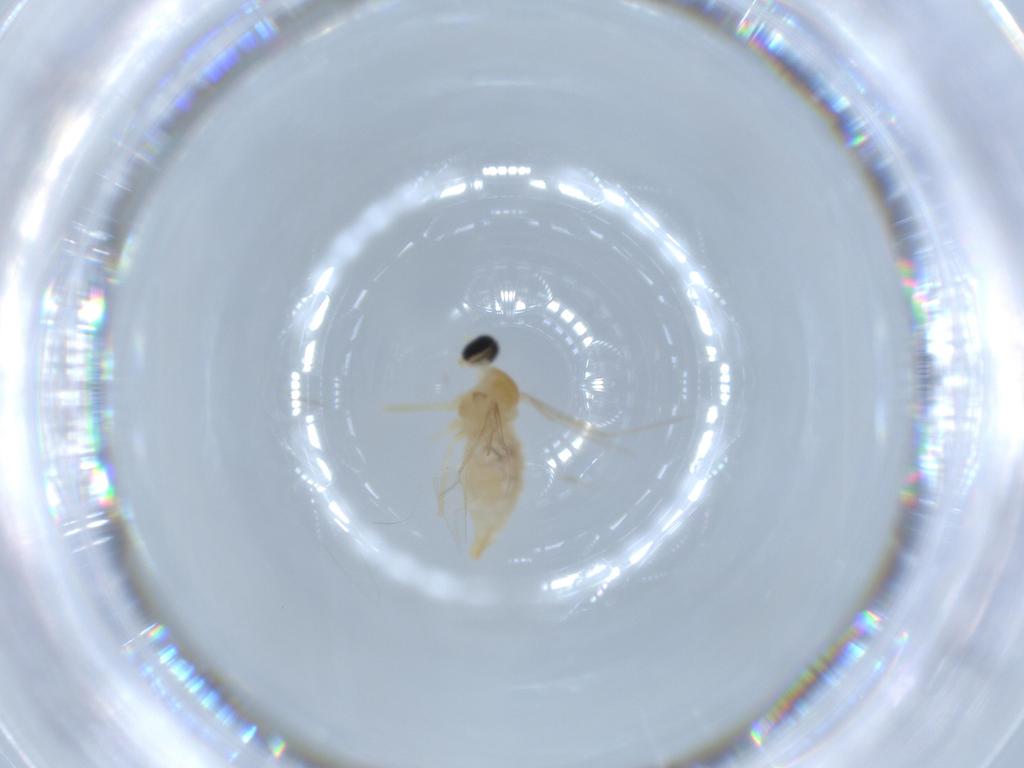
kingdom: Animalia
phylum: Arthropoda
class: Insecta
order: Diptera
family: Cecidomyiidae
